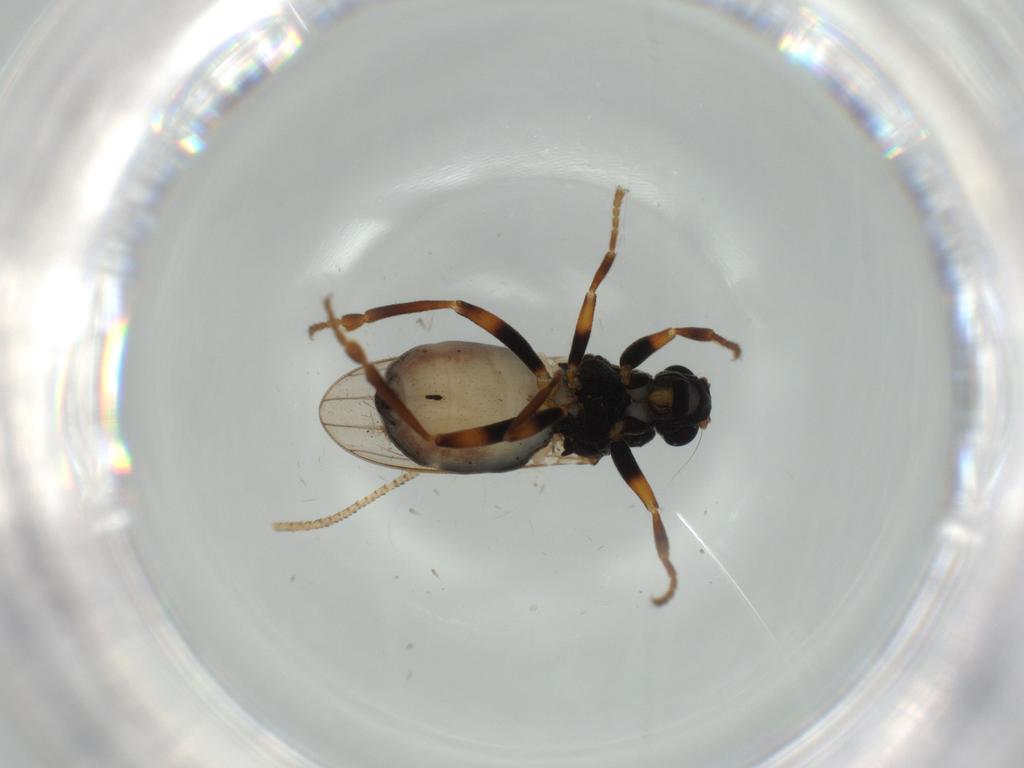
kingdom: Animalia
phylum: Arthropoda
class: Insecta
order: Diptera
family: Sphaeroceridae
